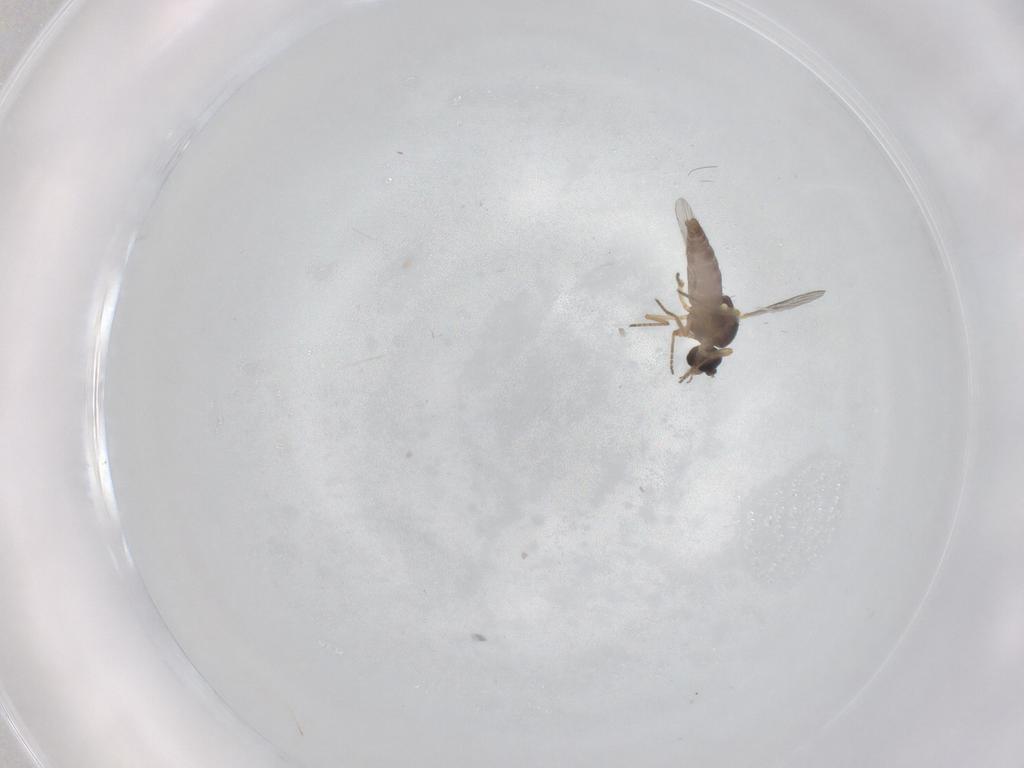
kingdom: Animalia
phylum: Arthropoda
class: Insecta
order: Diptera
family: Ceratopogonidae
